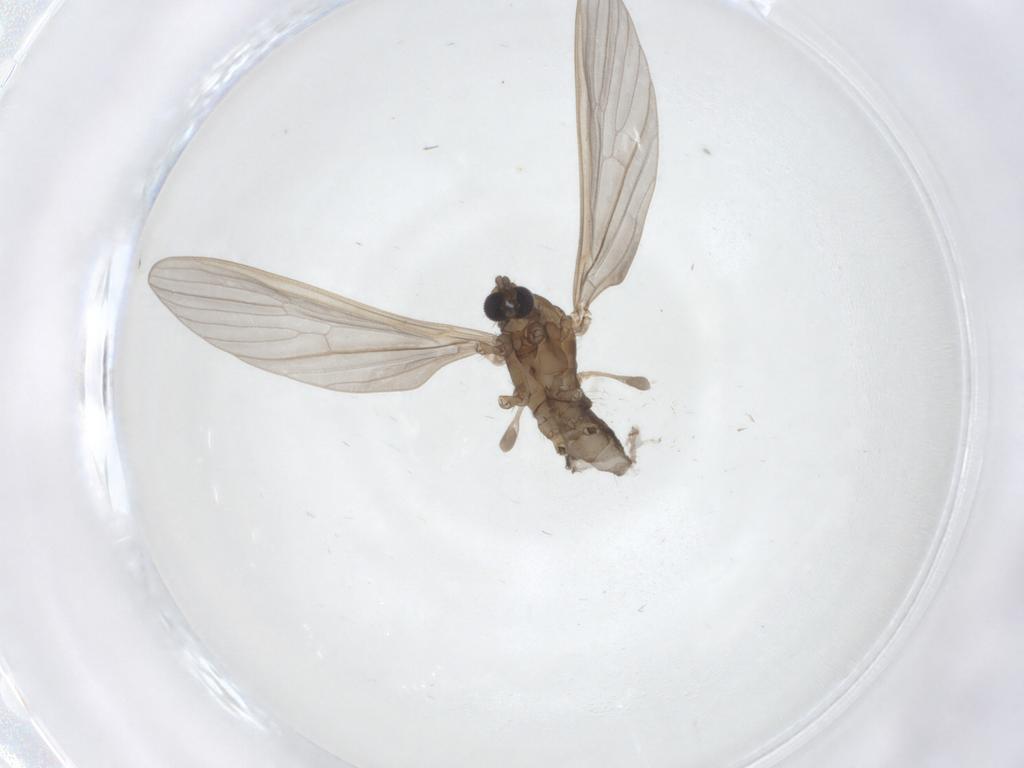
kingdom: Animalia
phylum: Arthropoda
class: Insecta
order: Diptera
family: Limoniidae
